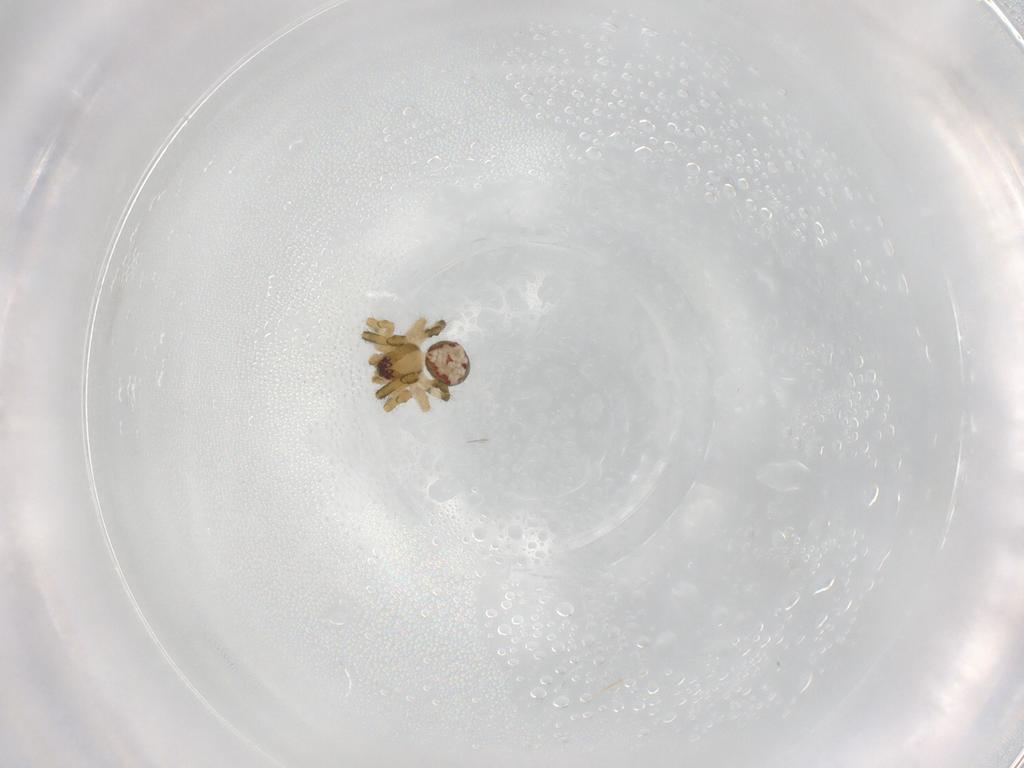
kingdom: Animalia
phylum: Arthropoda
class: Arachnida
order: Araneae
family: Theridiidae
